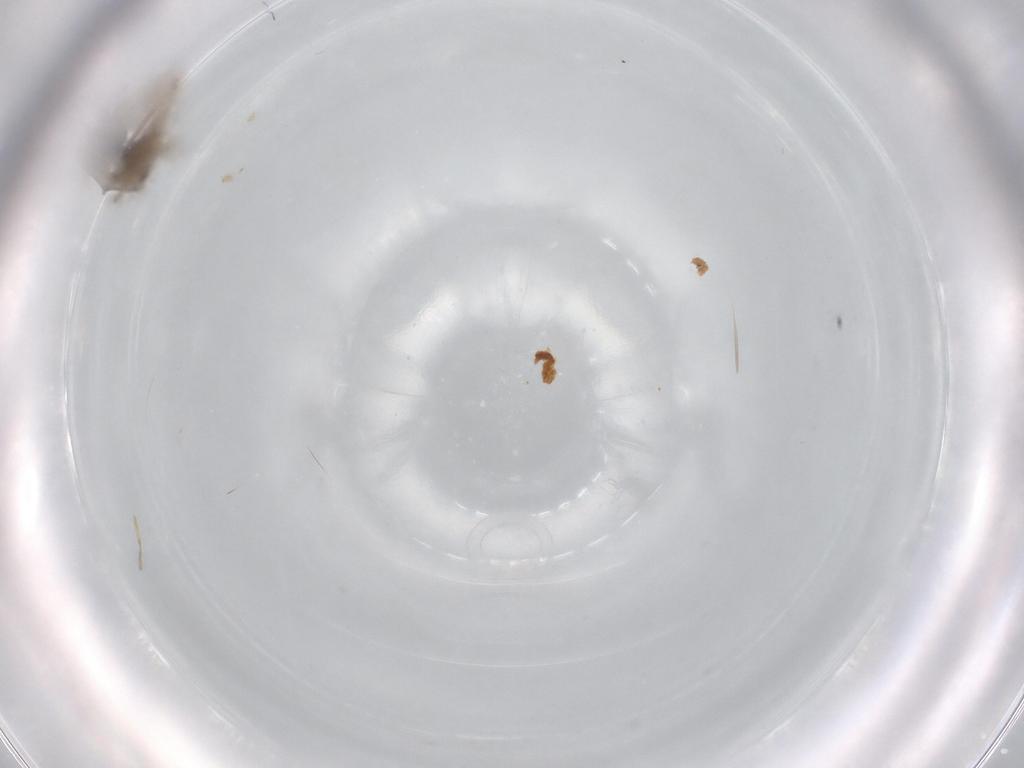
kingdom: Animalia
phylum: Arthropoda
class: Insecta
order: Diptera
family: Cecidomyiidae
